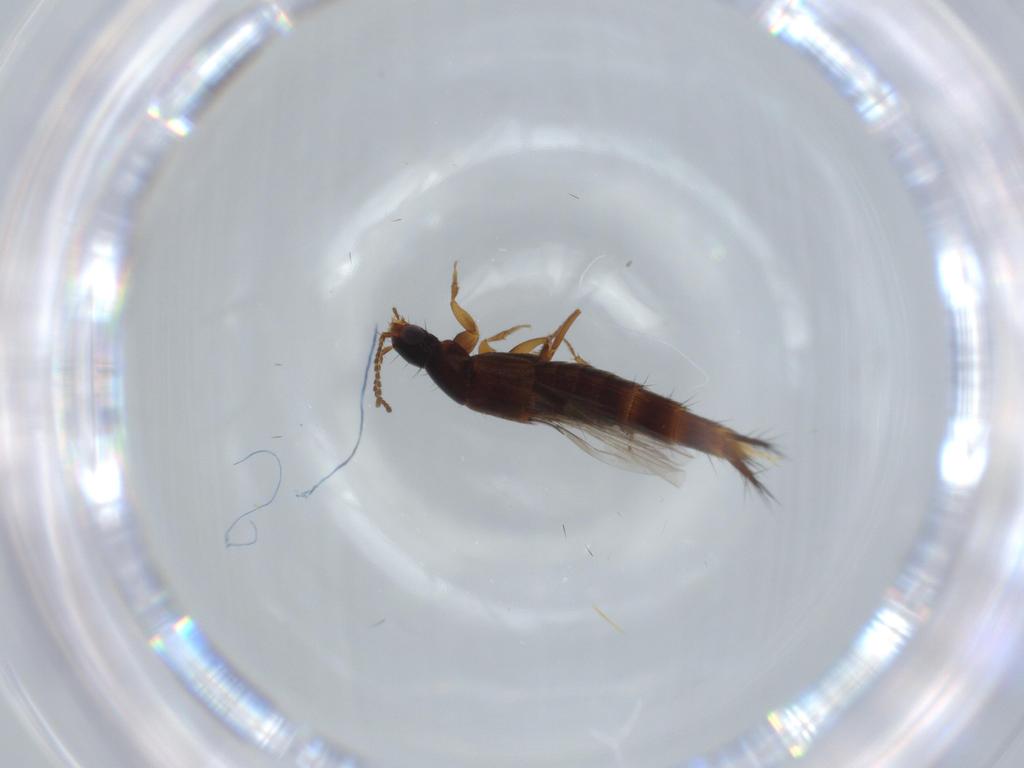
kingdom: Animalia
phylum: Arthropoda
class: Insecta
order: Coleoptera
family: Staphylinidae
